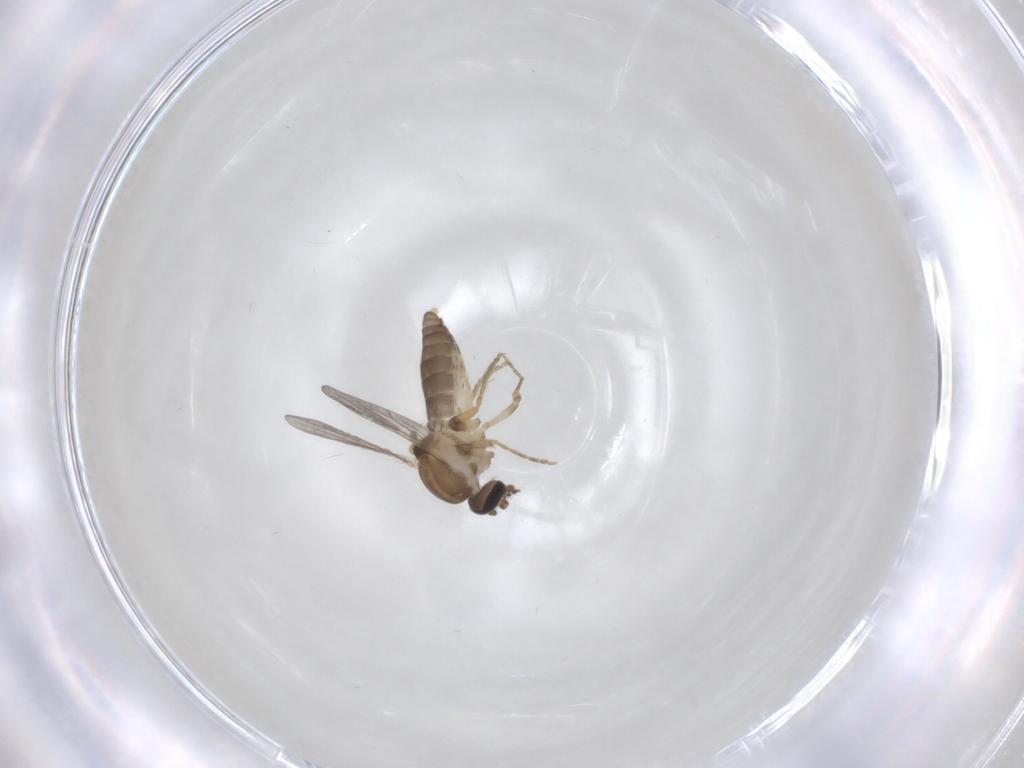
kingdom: Animalia
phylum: Arthropoda
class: Insecta
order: Diptera
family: Ceratopogonidae
